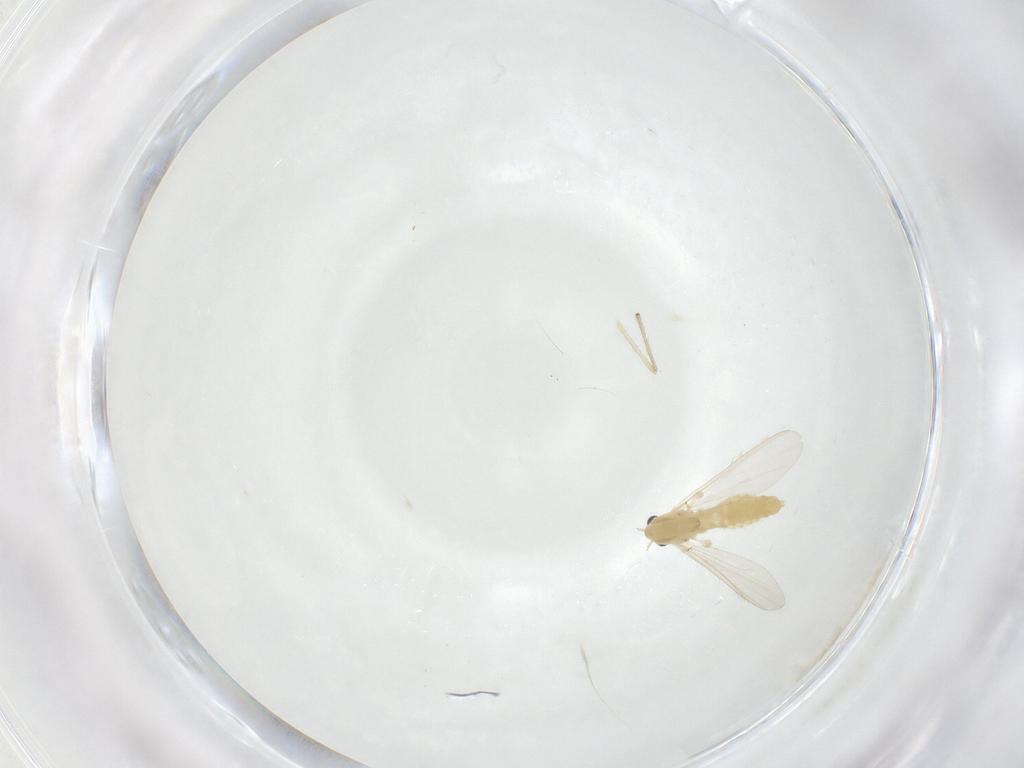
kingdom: Animalia
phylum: Arthropoda
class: Insecta
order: Diptera
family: Chironomidae
